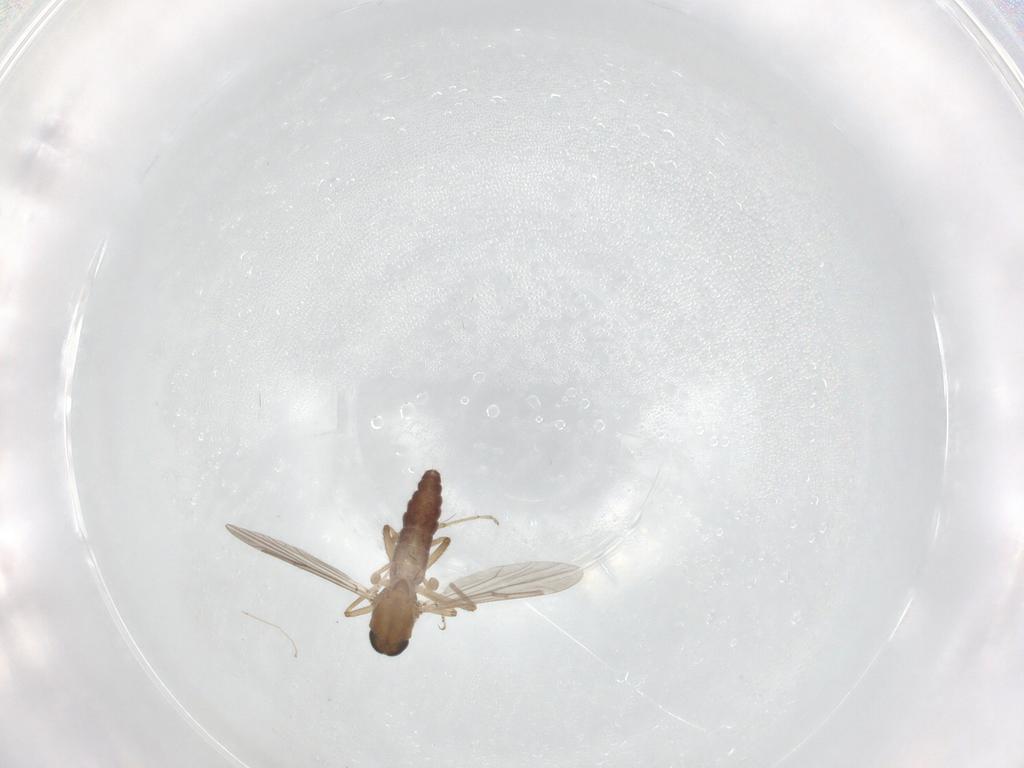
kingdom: Animalia
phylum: Arthropoda
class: Insecta
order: Diptera
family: Ceratopogonidae
